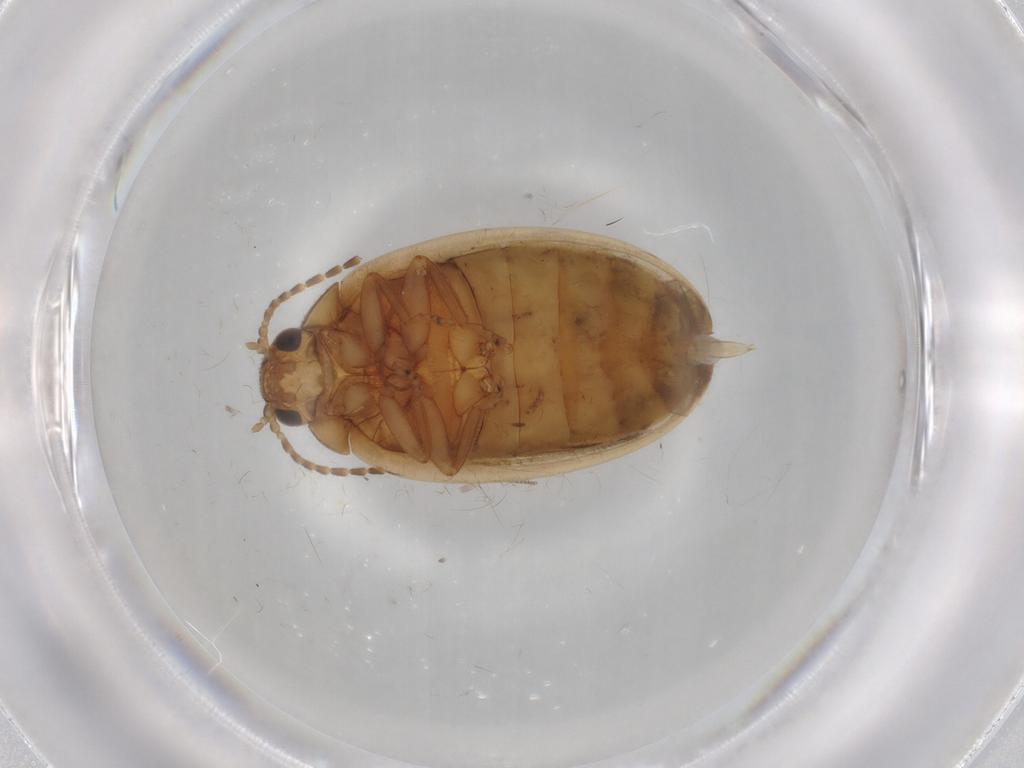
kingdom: Animalia
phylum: Arthropoda
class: Insecta
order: Coleoptera
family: Scirtidae
